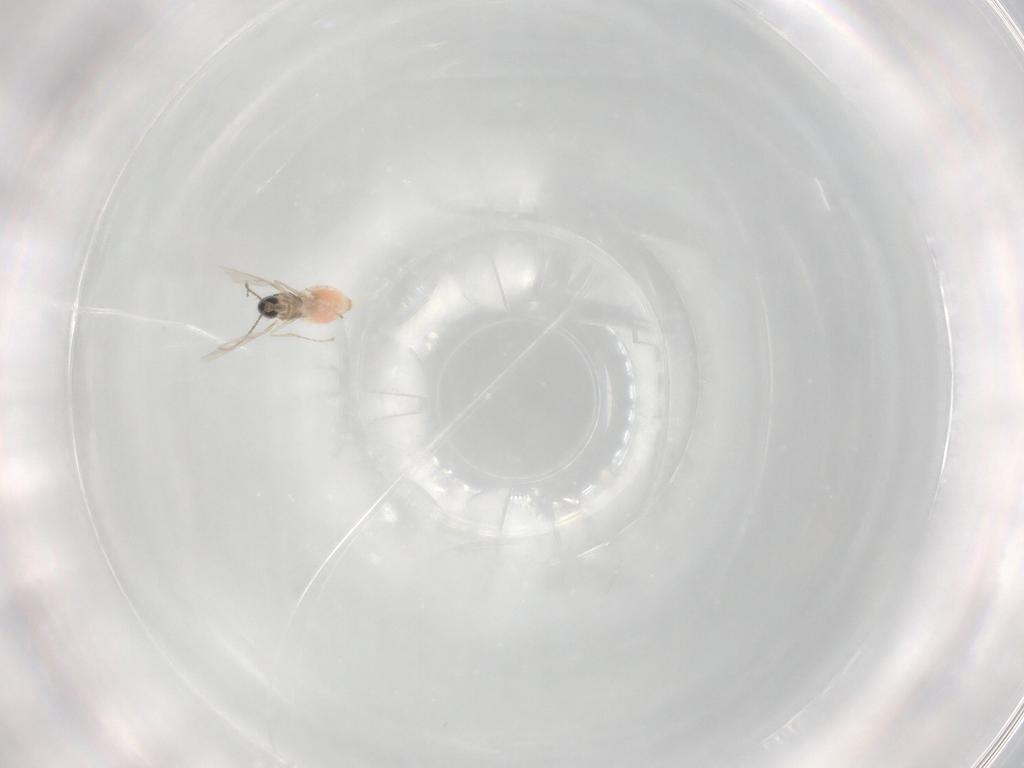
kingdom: Animalia
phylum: Arthropoda
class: Insecta
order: Diptera
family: Cecidomyiidae
